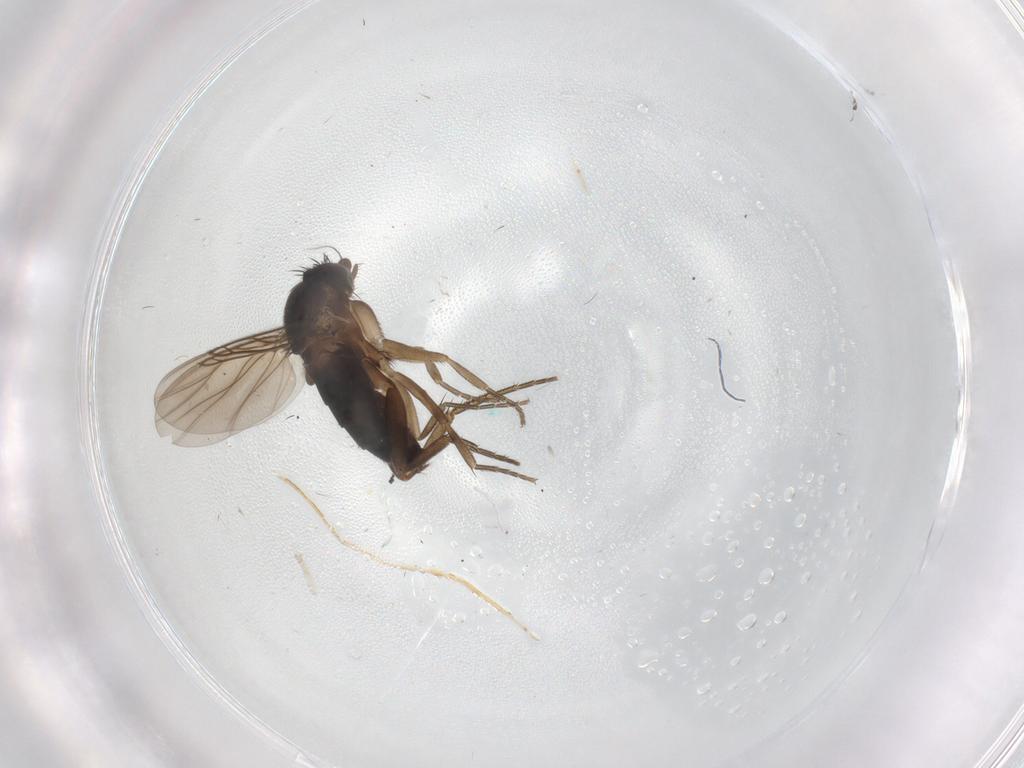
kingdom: Animalia
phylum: Arthropoda
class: Insecta
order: Diptera
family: Phoridae
